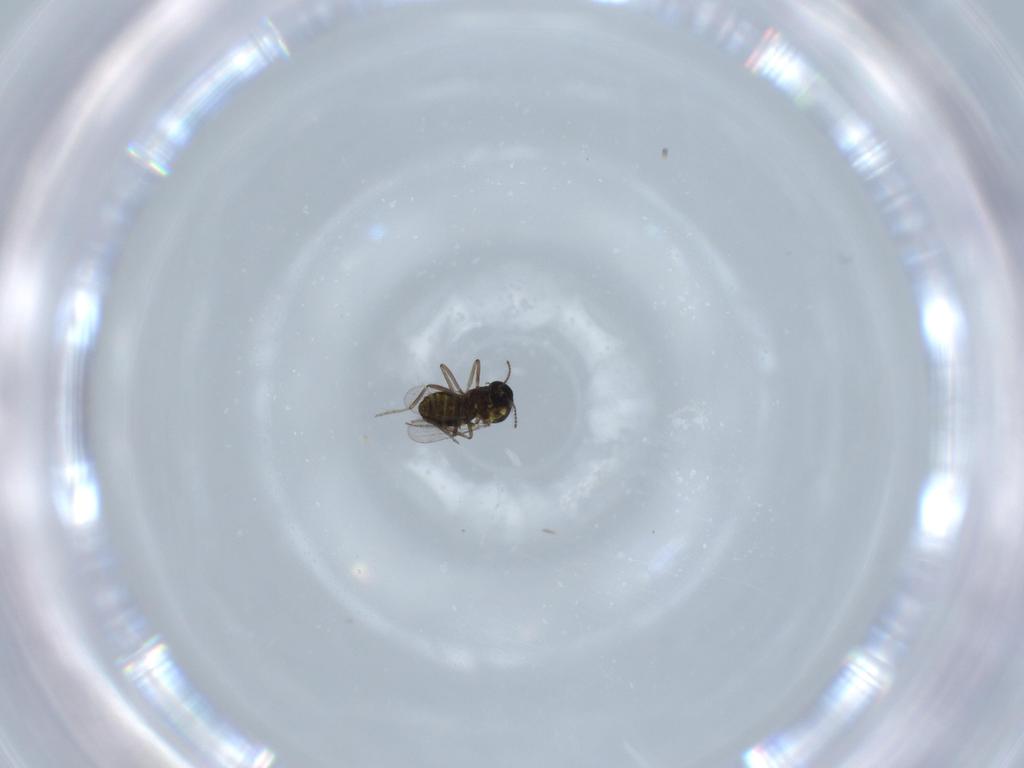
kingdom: Animalia
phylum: Arthropoda
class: Insecta
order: Diptera
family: Cecidomyiidae
